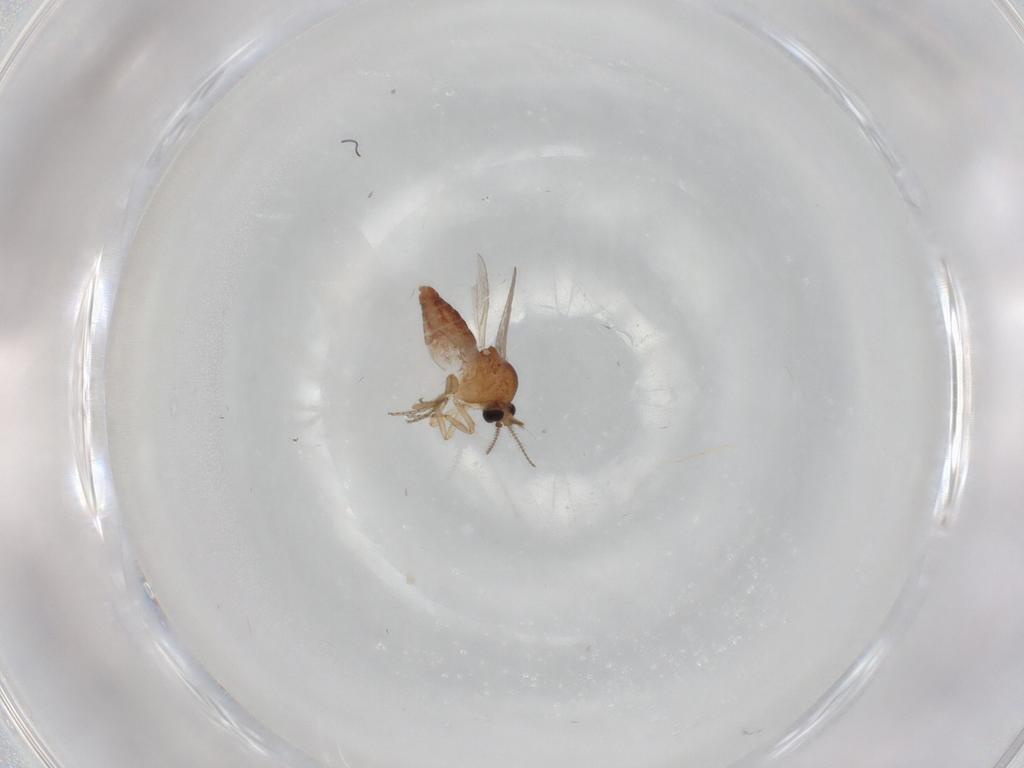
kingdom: Animalia
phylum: Arthropoda
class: Insecta
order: Diptera
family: Ceratopogonidae
